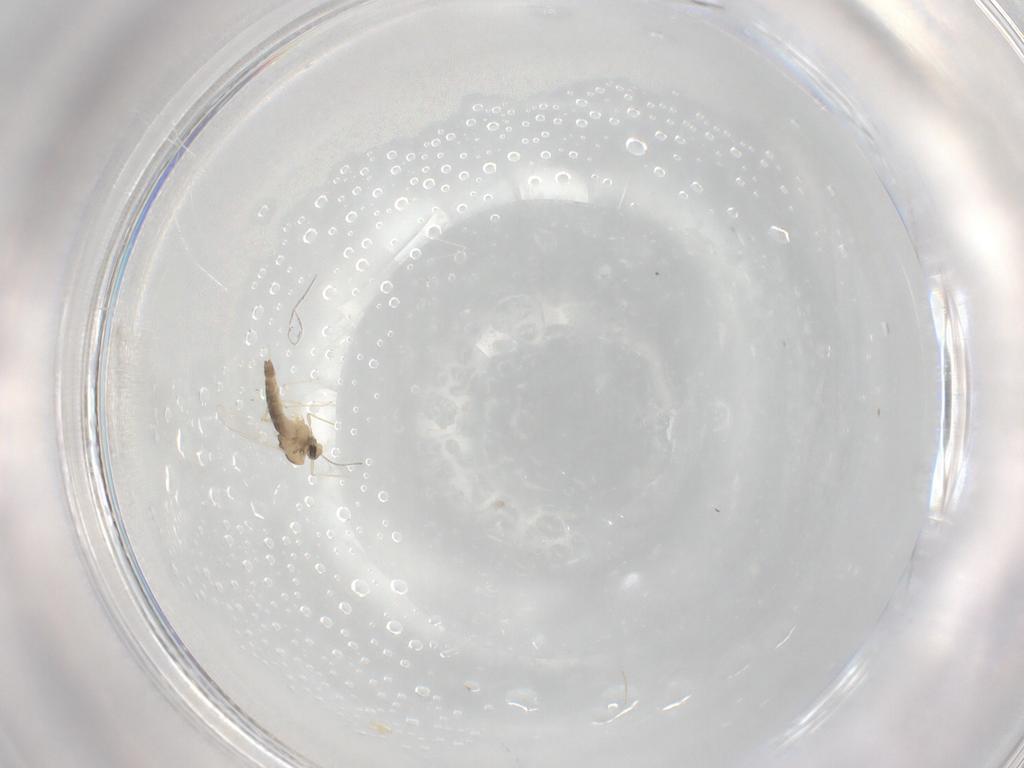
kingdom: Animalia
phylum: Arthropoda
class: Insecta
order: Diptera
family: Chironomidae
